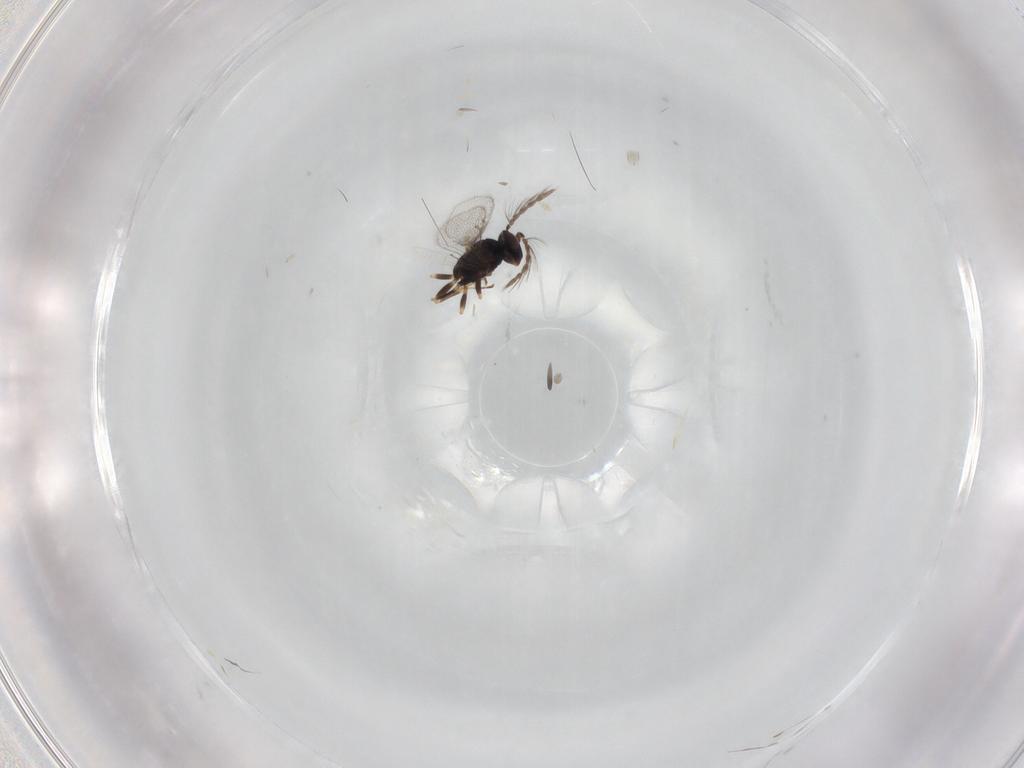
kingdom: Animalia
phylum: Arthropoda
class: Insecta
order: Hymenoptera
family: Eulophidae
